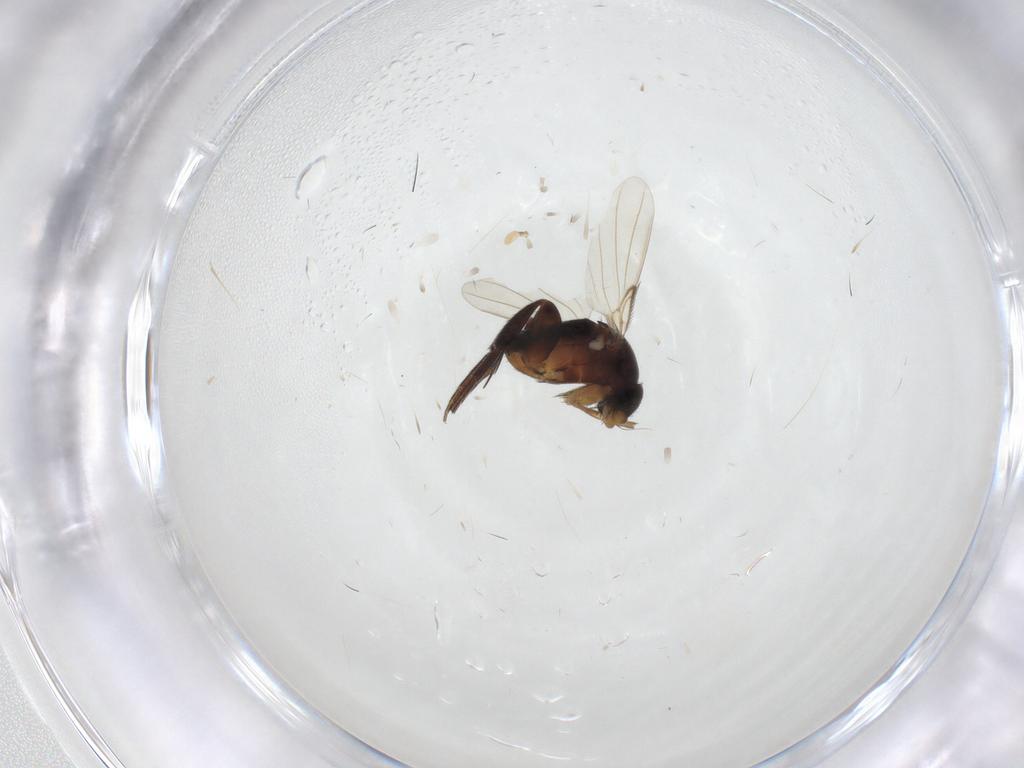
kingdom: Animalia
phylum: Arthropoda
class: Insecta
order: Diptera
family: Phoridae
